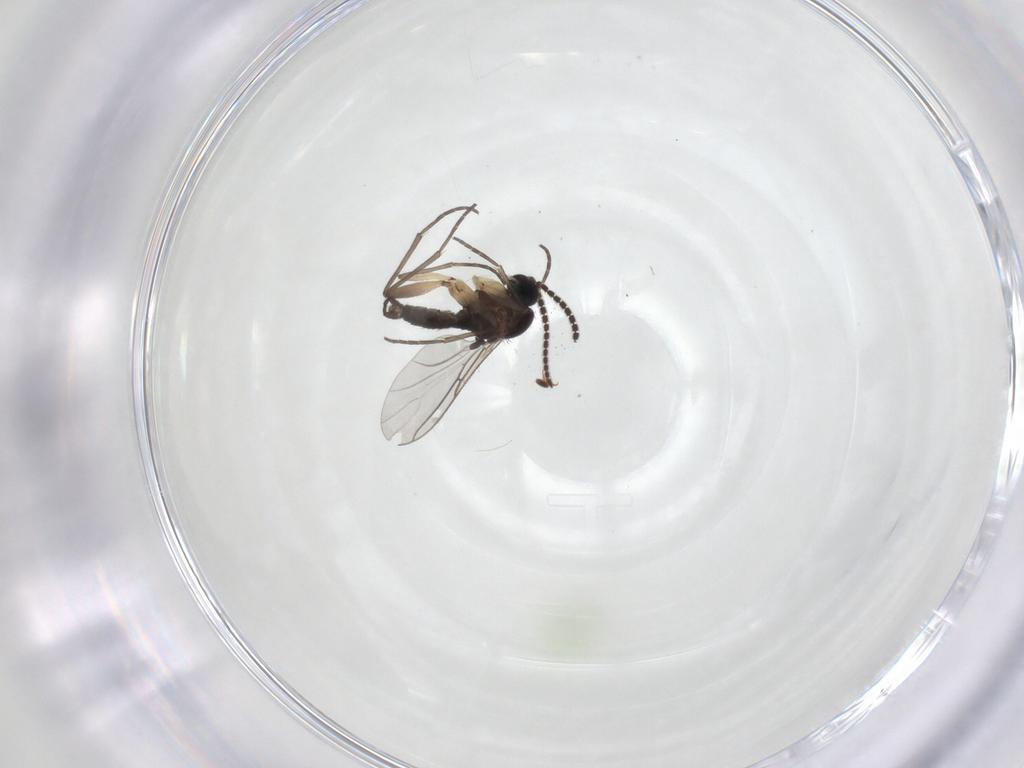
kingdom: Animalia
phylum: Arthropoda
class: Insecta
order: Diptera
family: Sciaridae
